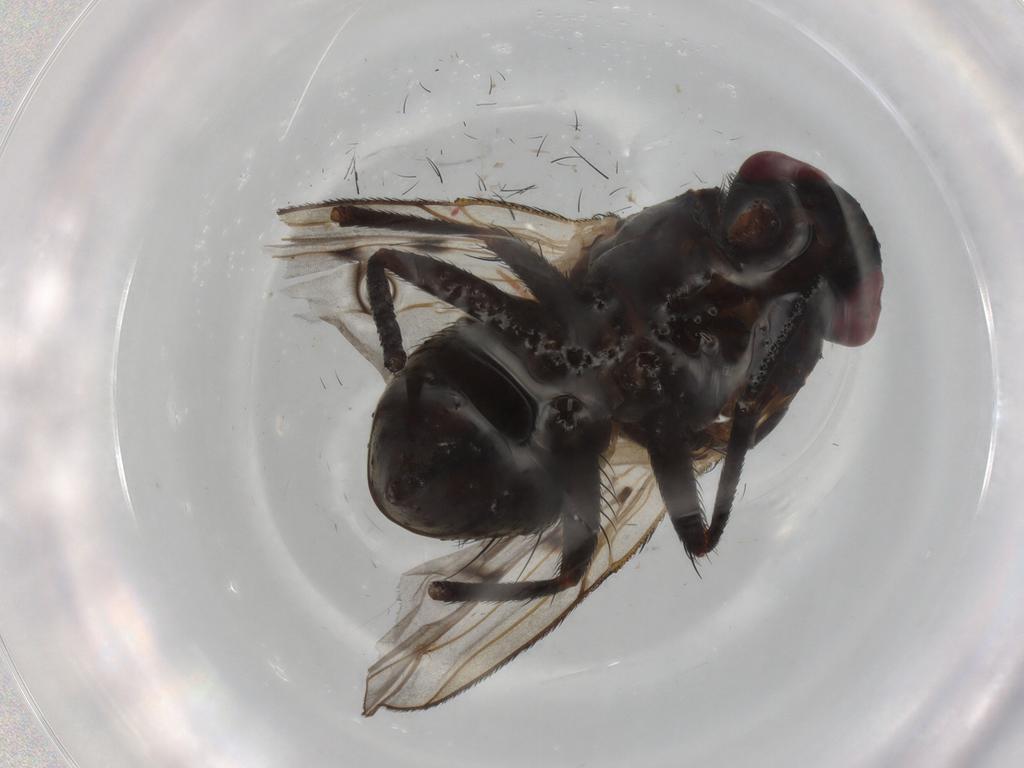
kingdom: Animalia
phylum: Arthropoda
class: Insecta
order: Diptera
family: Muscidae
